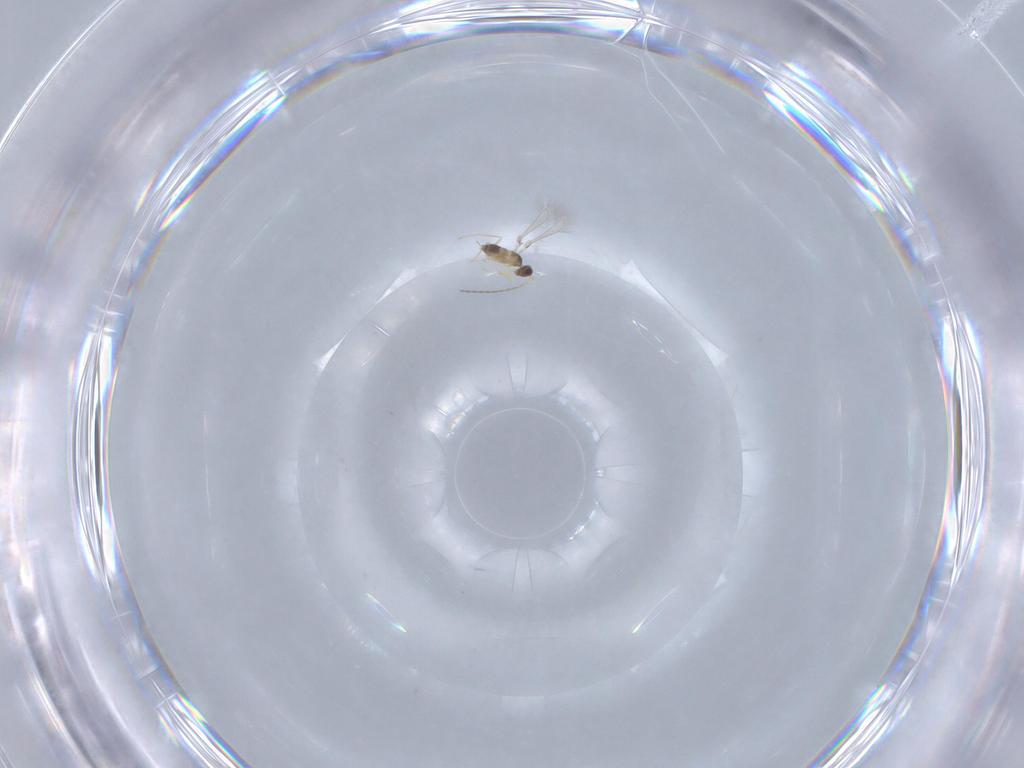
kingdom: Animalia
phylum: Arthropoda
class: Insecta
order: Hymenoptera
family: Mymaridae
